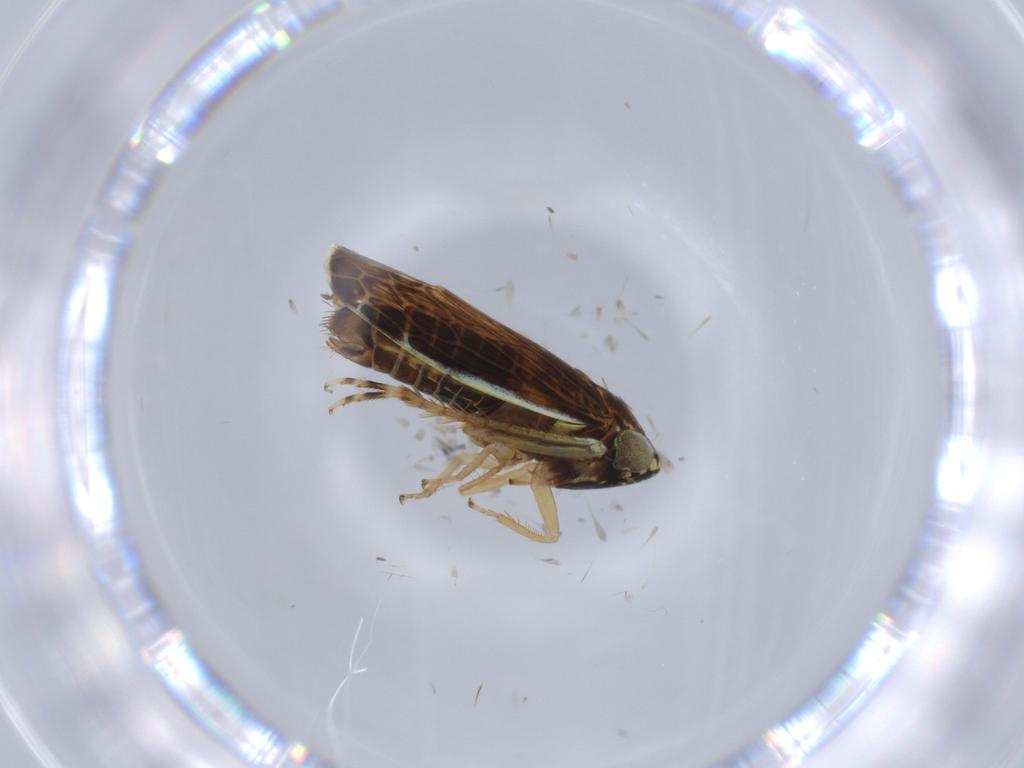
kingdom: Animalia
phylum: Arthropoda
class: Insecta
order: Hemiptera
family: Cicadellidae
